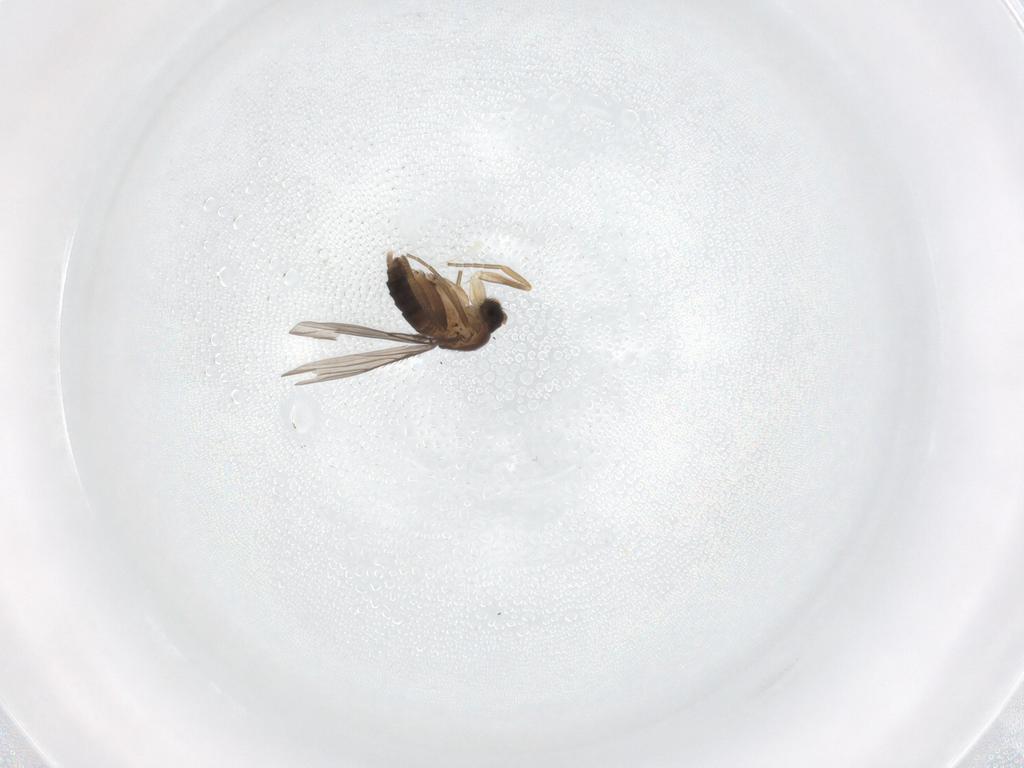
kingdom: Animalia
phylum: Arthropoda
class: Insecta
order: Diptera
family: Phoridae
